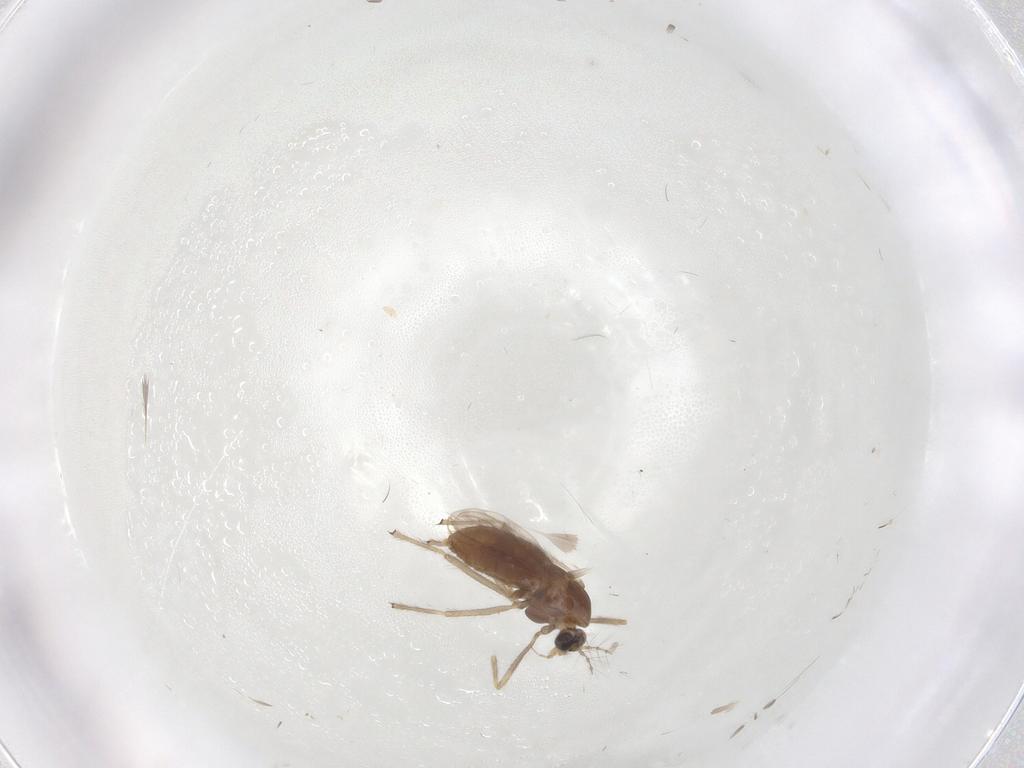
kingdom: Animalia
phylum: Arthropoda
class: Insecta
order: Diptera
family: Chironomidae
